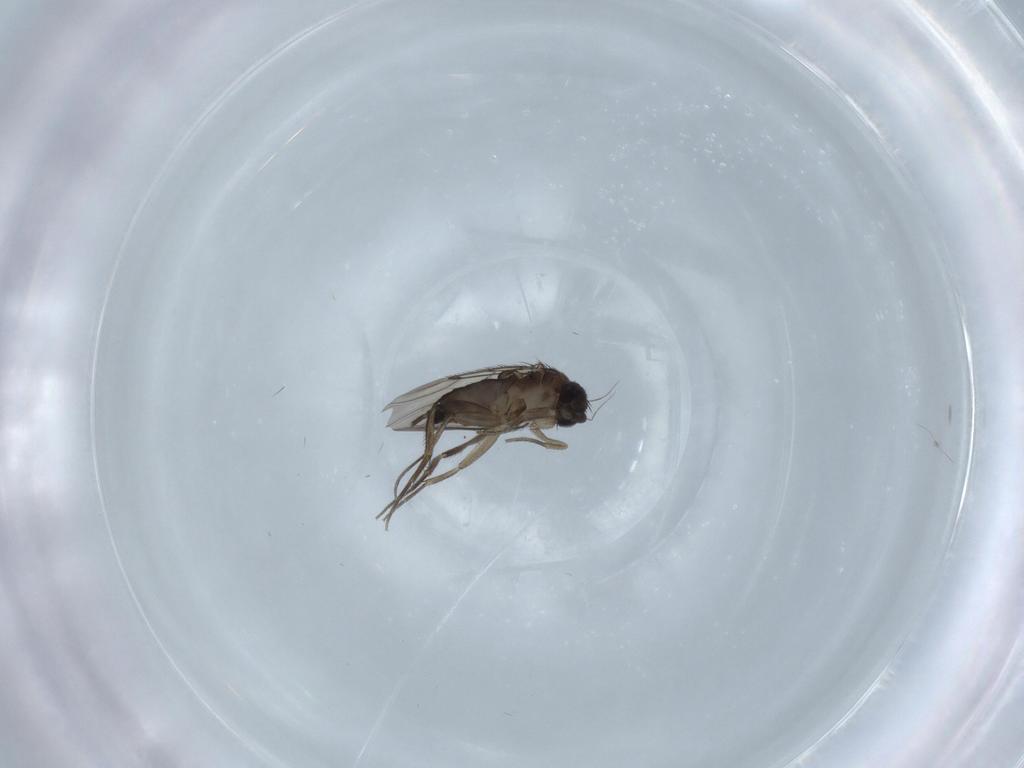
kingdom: Animalia
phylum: Arthropoda
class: Insecta
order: Diptera
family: Phoridae
